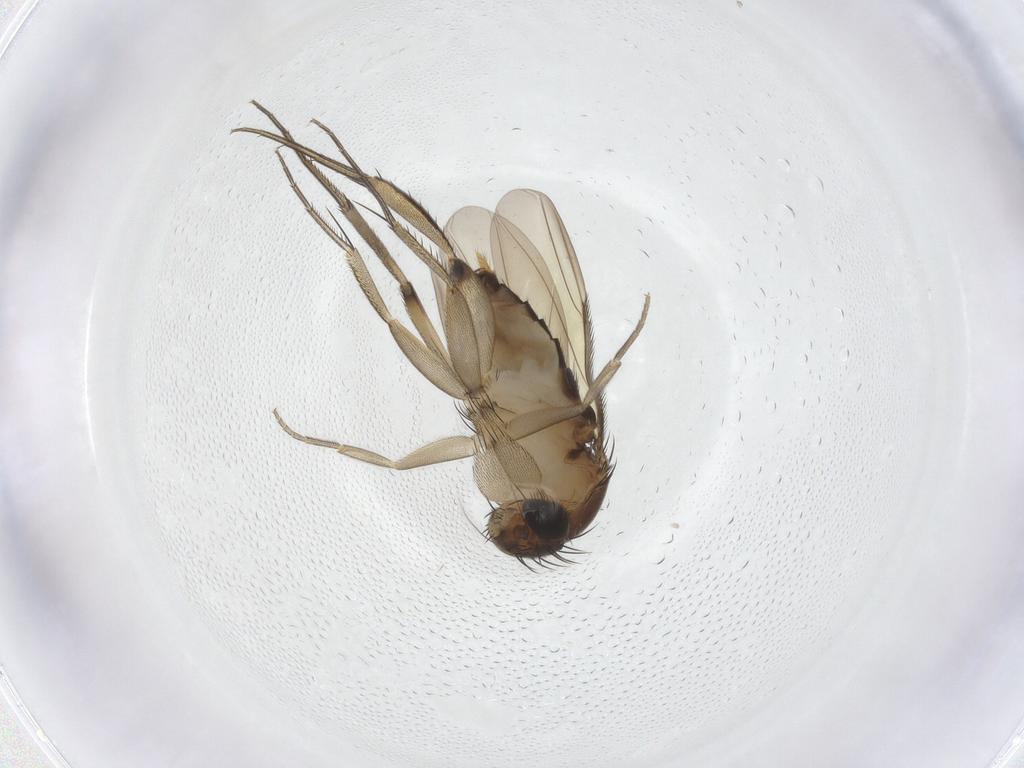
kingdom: Animalia
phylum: Arthropoda
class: Insecta
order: Diptera
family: Phoridae
